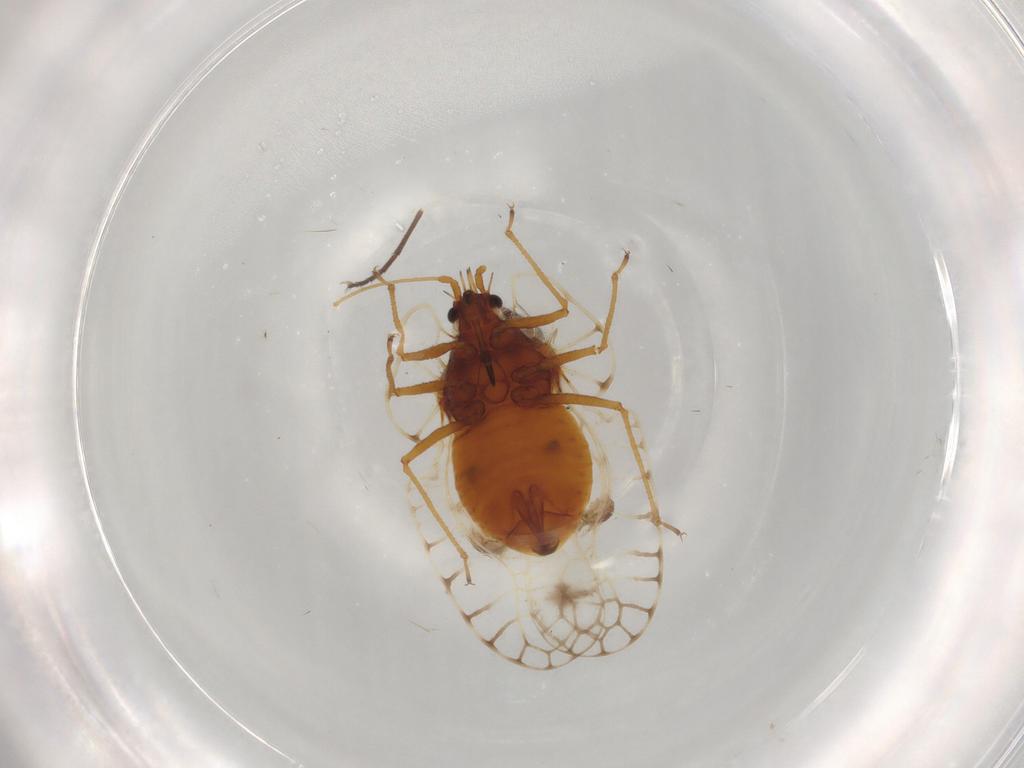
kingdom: Animalia
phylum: Arthropoda
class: Insecta
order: Hemiptera
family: Tingidae
